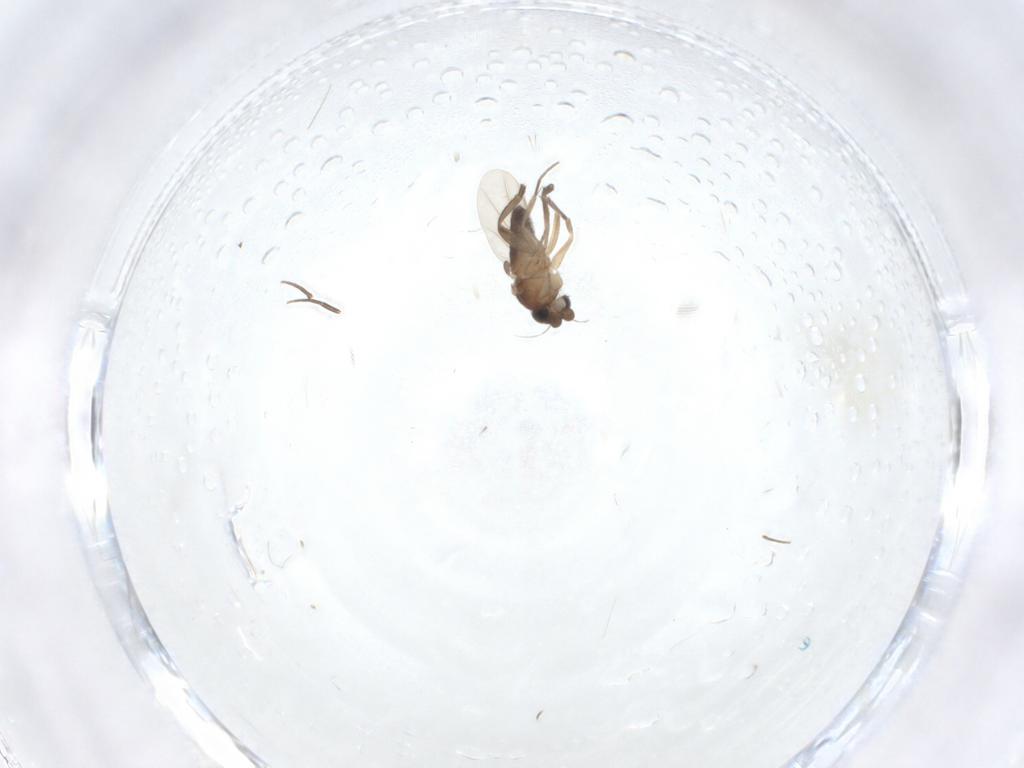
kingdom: Animalia
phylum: Arthropoda
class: Insecta
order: Diptera
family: Phoridae
